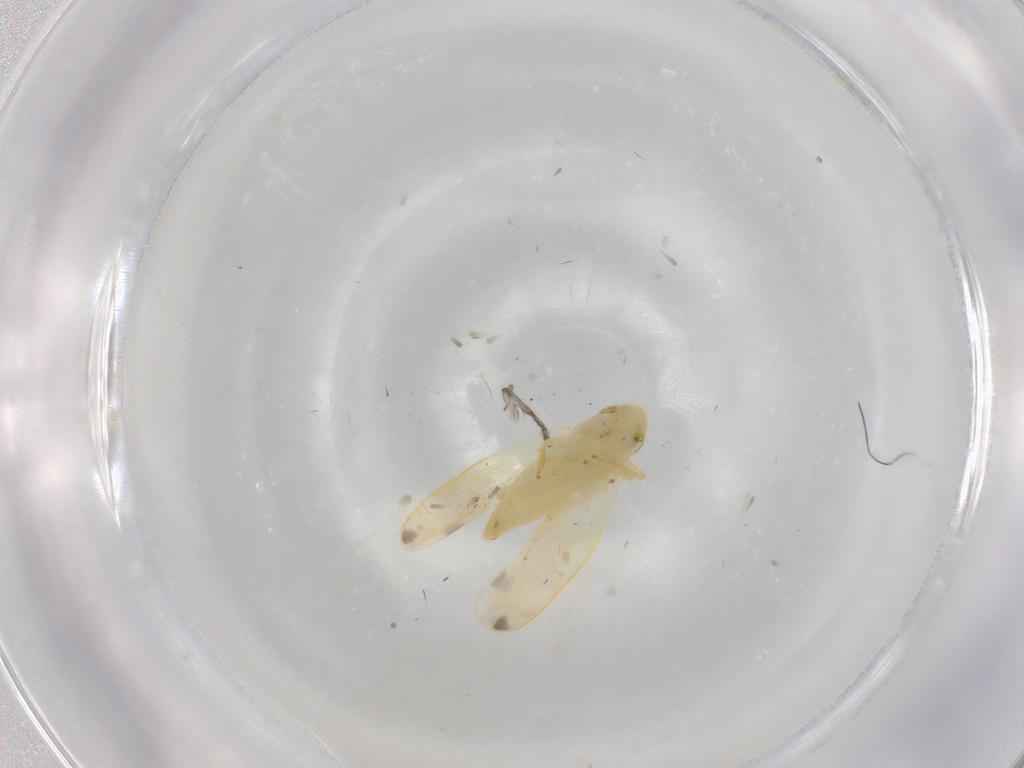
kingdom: Animalia
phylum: Arthropoda
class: Insecta
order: Hemiptera
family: Cicadellidae
